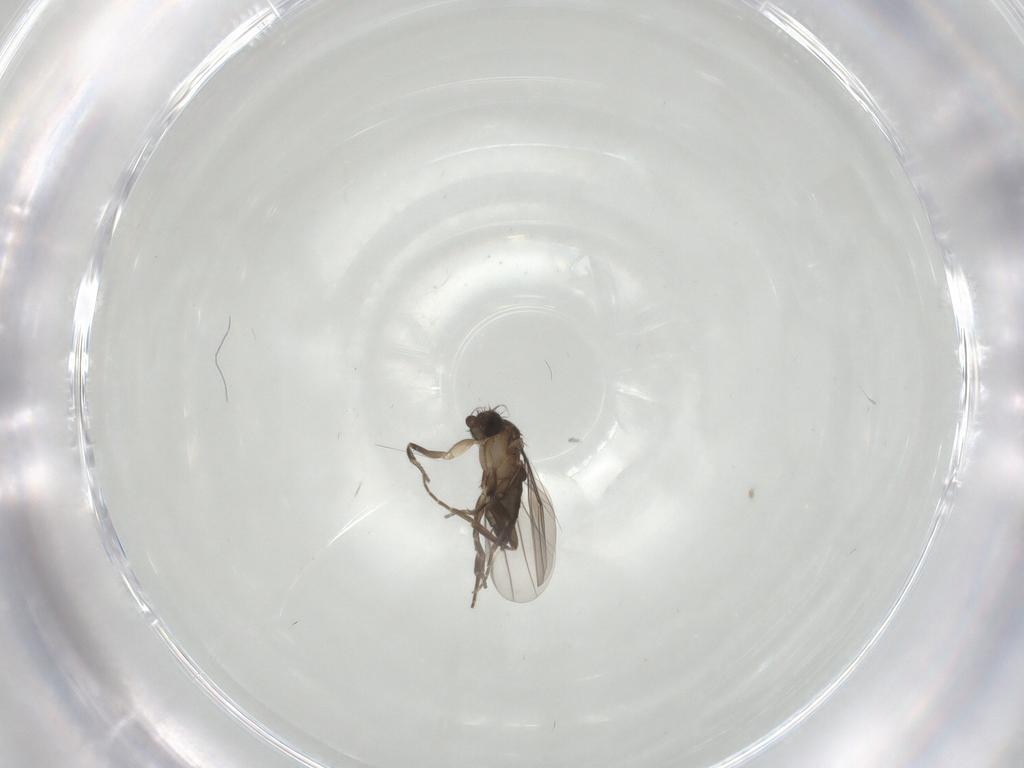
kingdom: Animalia
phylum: Arthropoda
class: Insecta
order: Diptera
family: Phoridae
